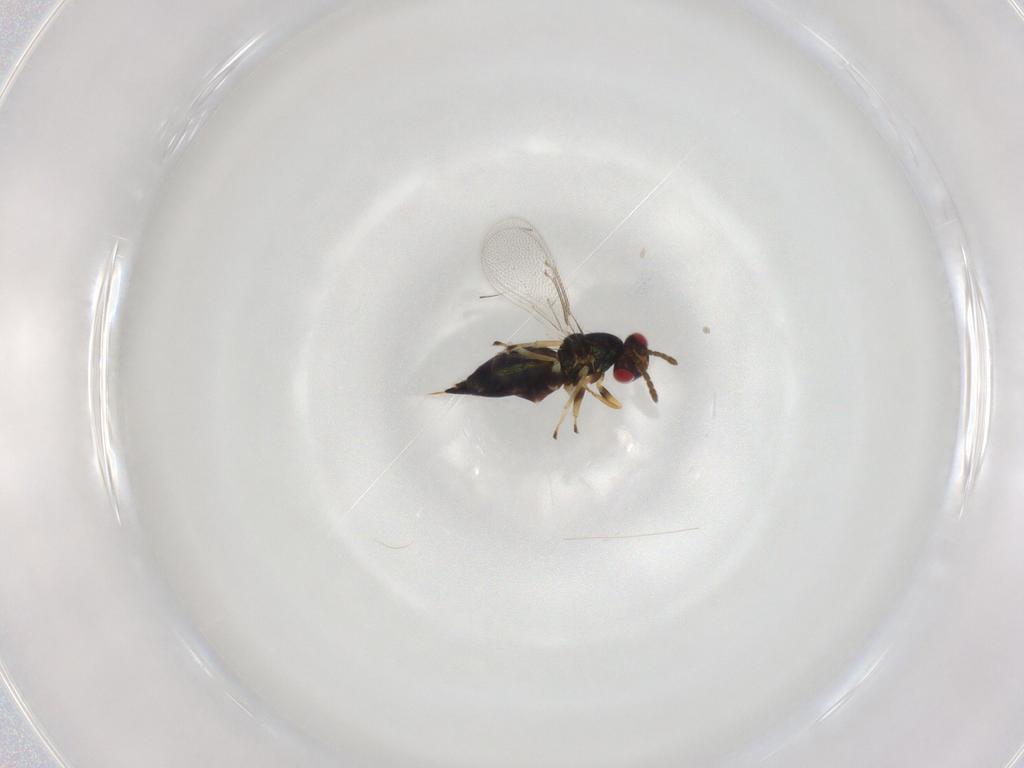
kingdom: Animalia
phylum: Arthropoda
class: Insecta
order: Hymenoptera
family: Eulophidae
